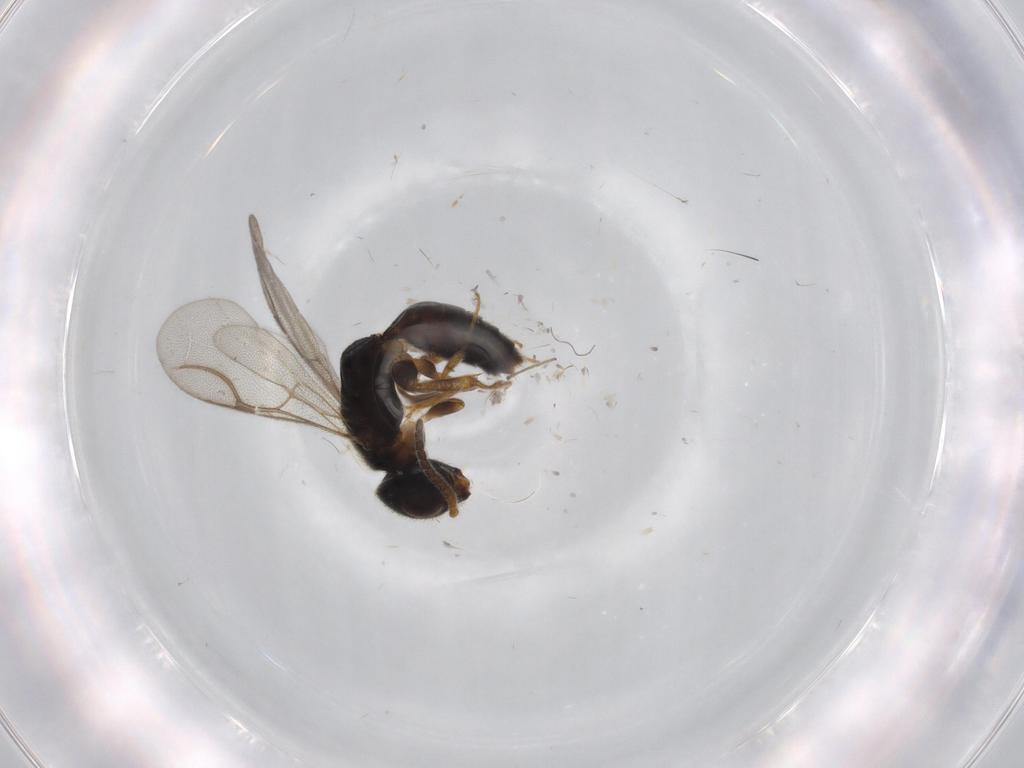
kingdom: Animalia
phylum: Arthropoda
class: Insecta
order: Hymenoptera
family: Bethylidae
